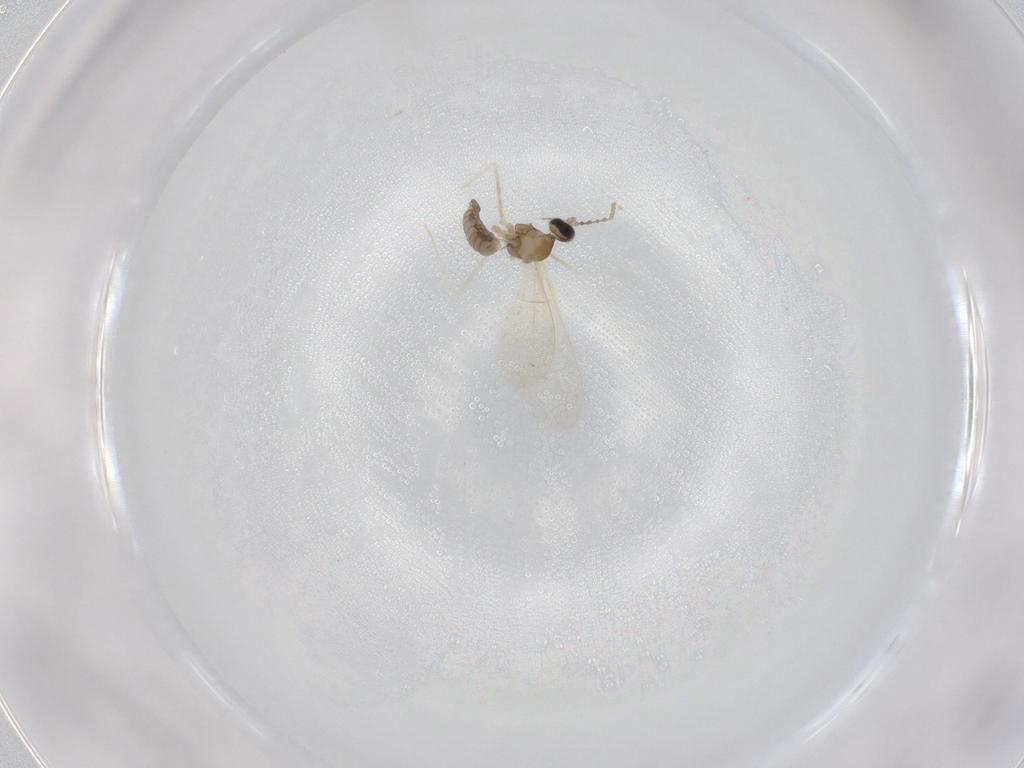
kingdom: Animalia
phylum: Arthropoda
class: Insecta
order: Diptera
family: Cecidomyiidae
